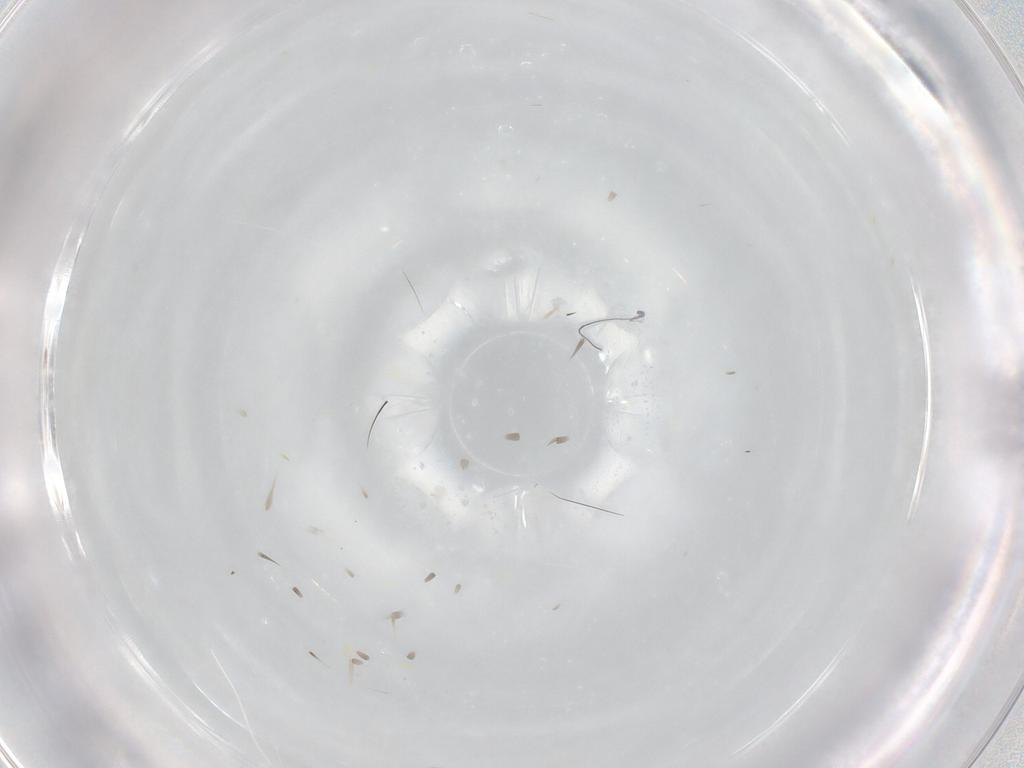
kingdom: Animalia
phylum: Arthropoda
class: Insecta
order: Hymenoptera
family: Ceraphronidae
